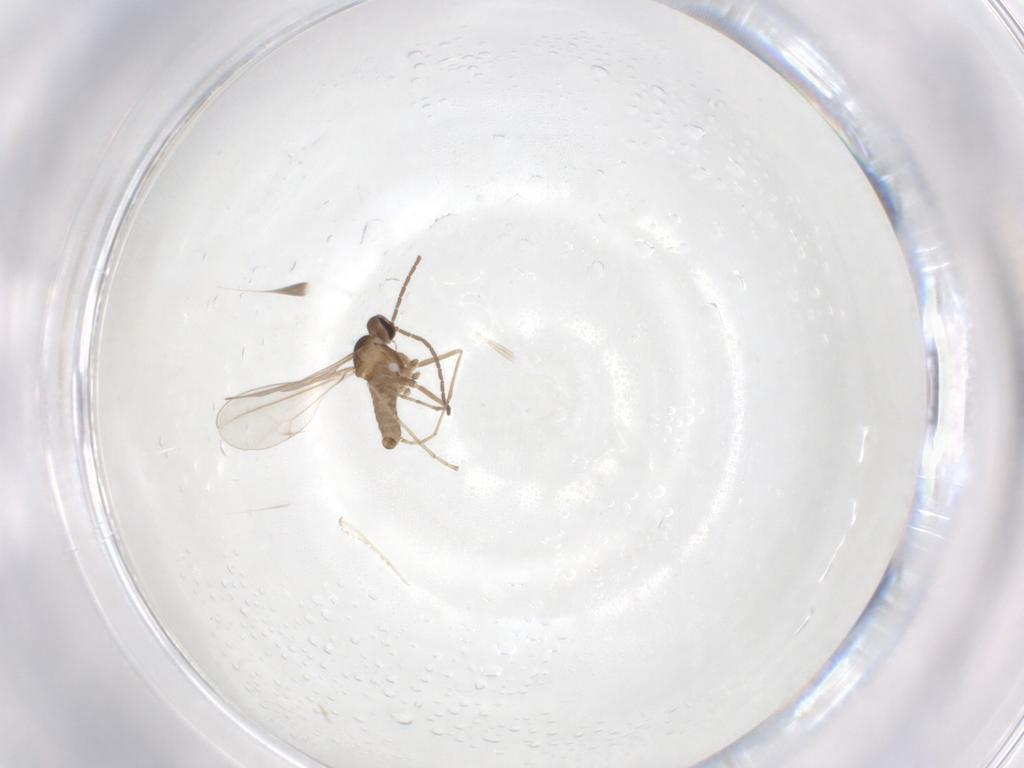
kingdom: Animalia
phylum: Arthropoda
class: Insecta
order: Diptera
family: Cecidomyiidae
